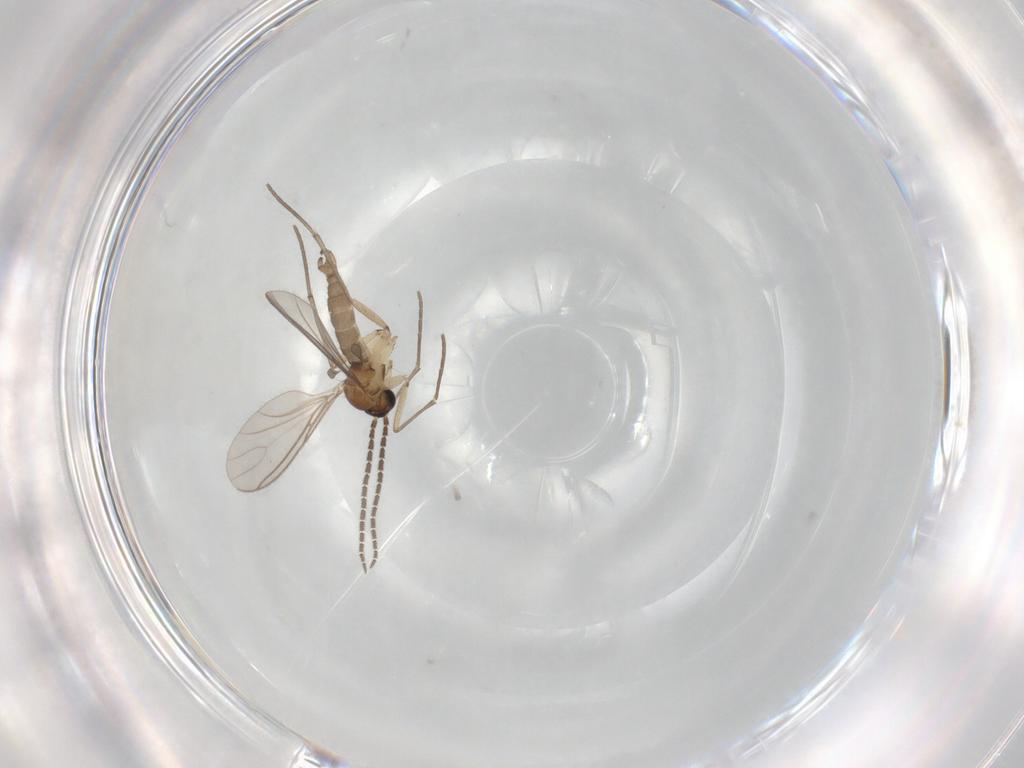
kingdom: Animalia
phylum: Arthropoda
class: Insecta
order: Diptera
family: Sciaridae
